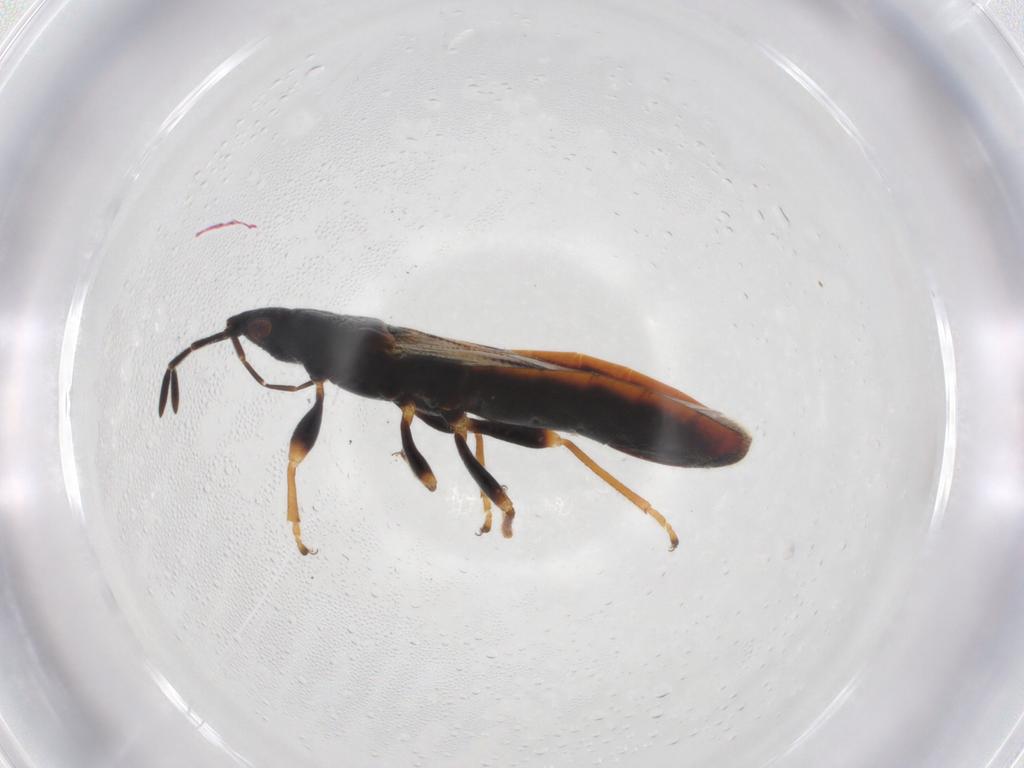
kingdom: Animalia
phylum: Arthropoda
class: Insecta
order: Hemiptera
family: Blissidae
